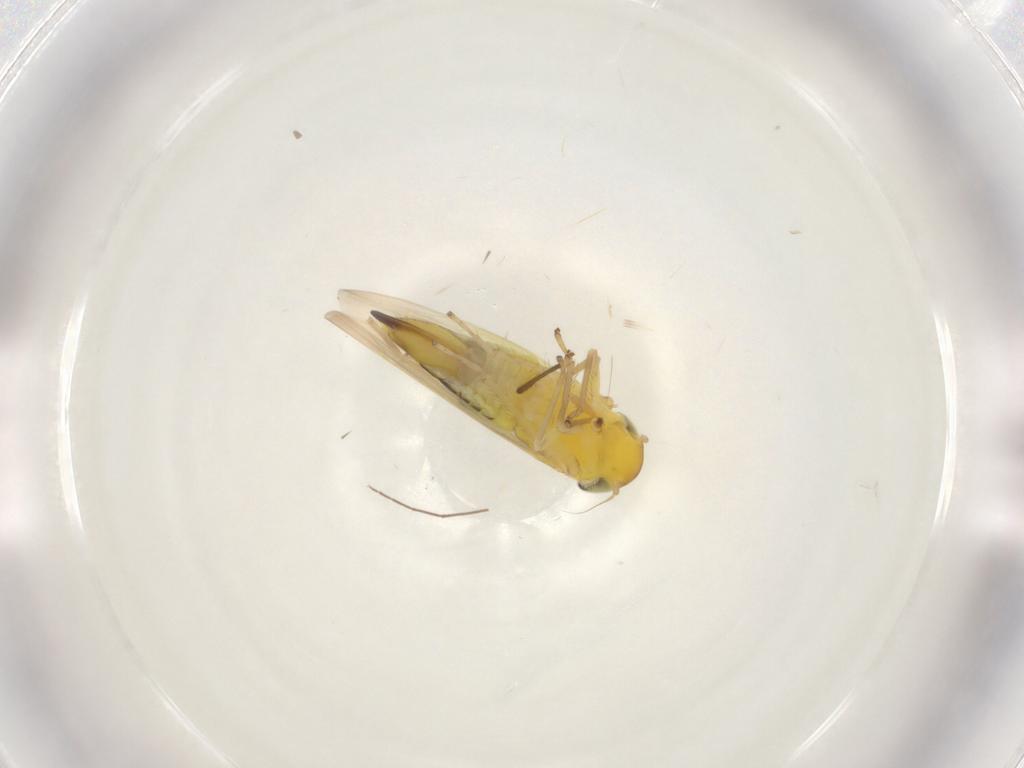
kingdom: Animalia
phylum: Arthropoda
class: Insecta
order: Hemiptera
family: Cicadellidae
